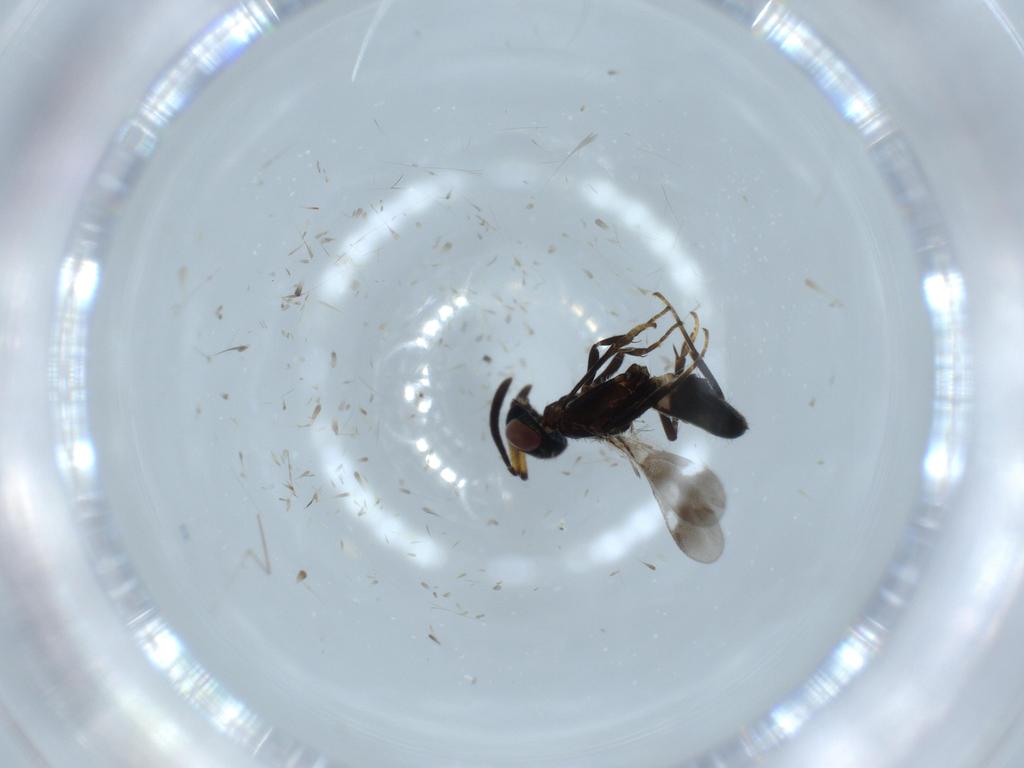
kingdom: Animalia
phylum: Arthropoda
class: Insecta
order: Hymenoptera
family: Eupelmidae
